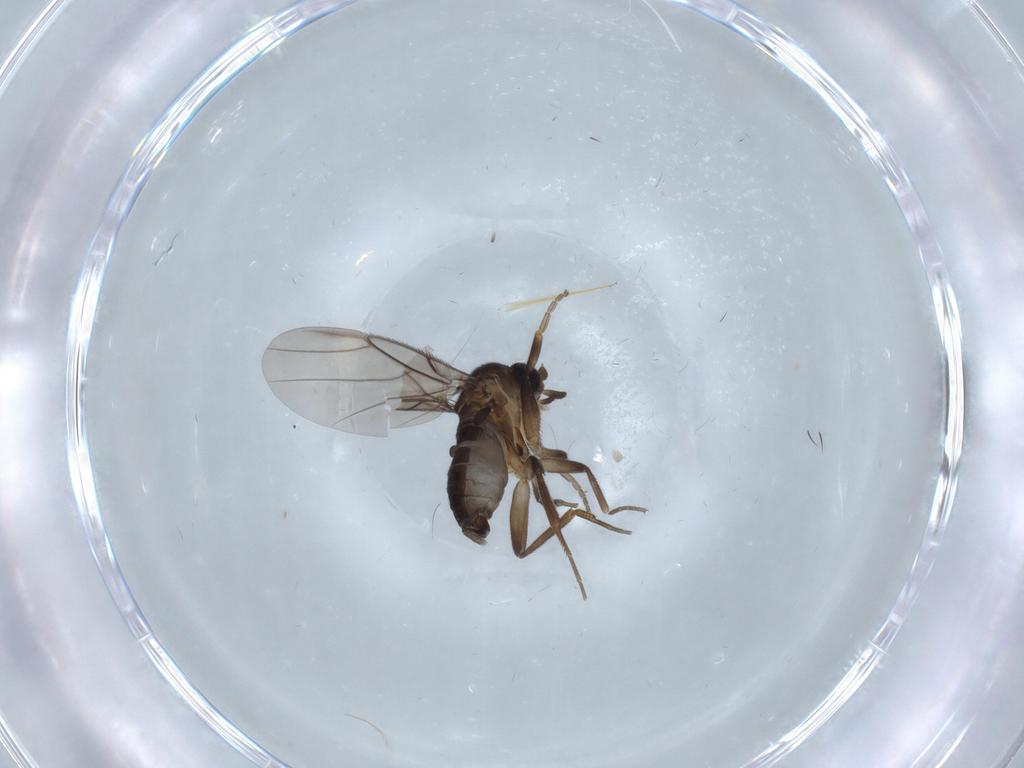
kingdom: Animalia
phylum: Arthropoda
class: Insecta
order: Diptera
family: Phoridae
